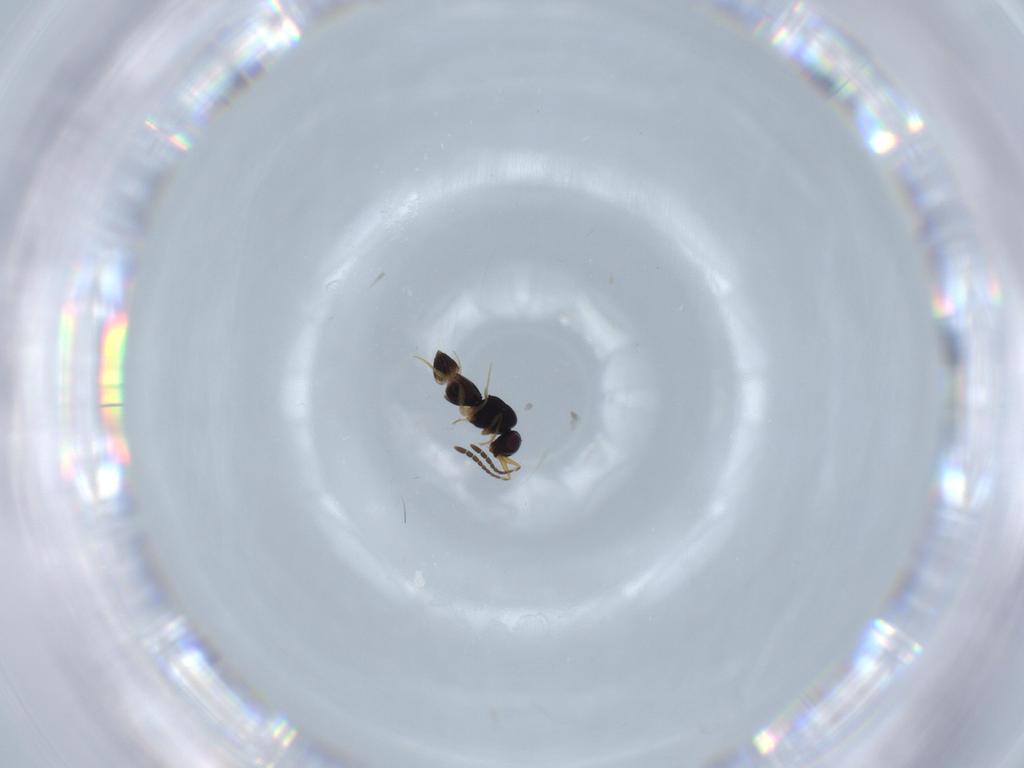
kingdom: Animalia
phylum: Arthropoda
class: Insecta
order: Hymenoptera
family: Ceraphronidae
